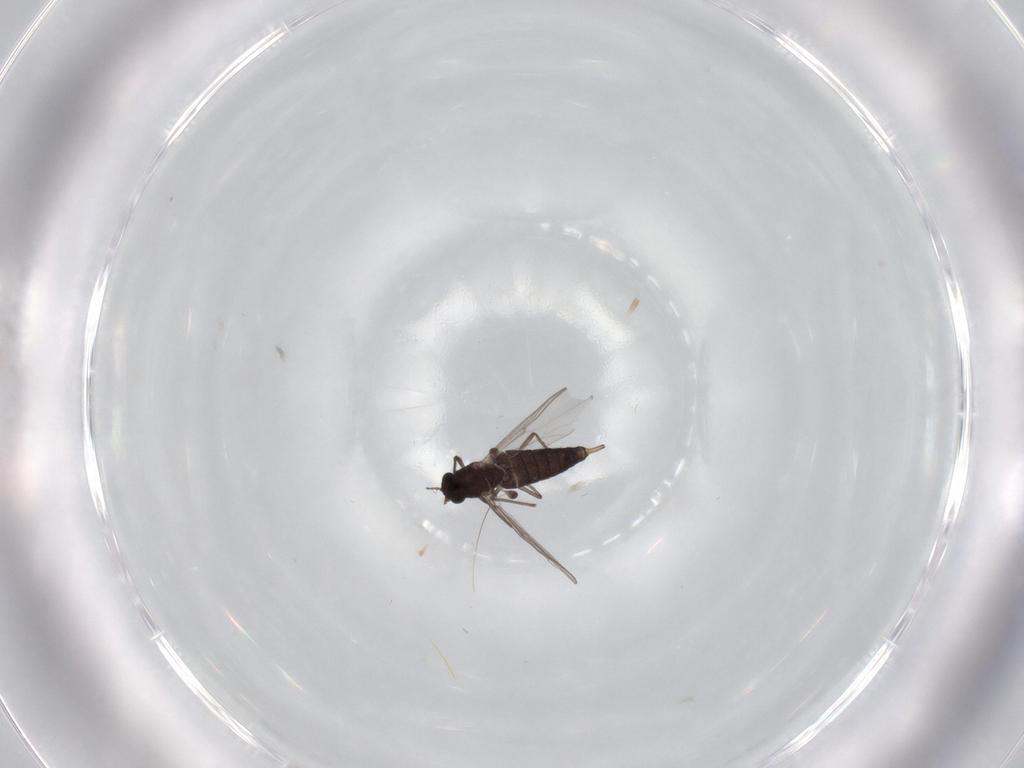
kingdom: Animalia
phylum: Arthropoda
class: Insecta
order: Diptera
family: Chironomidae
